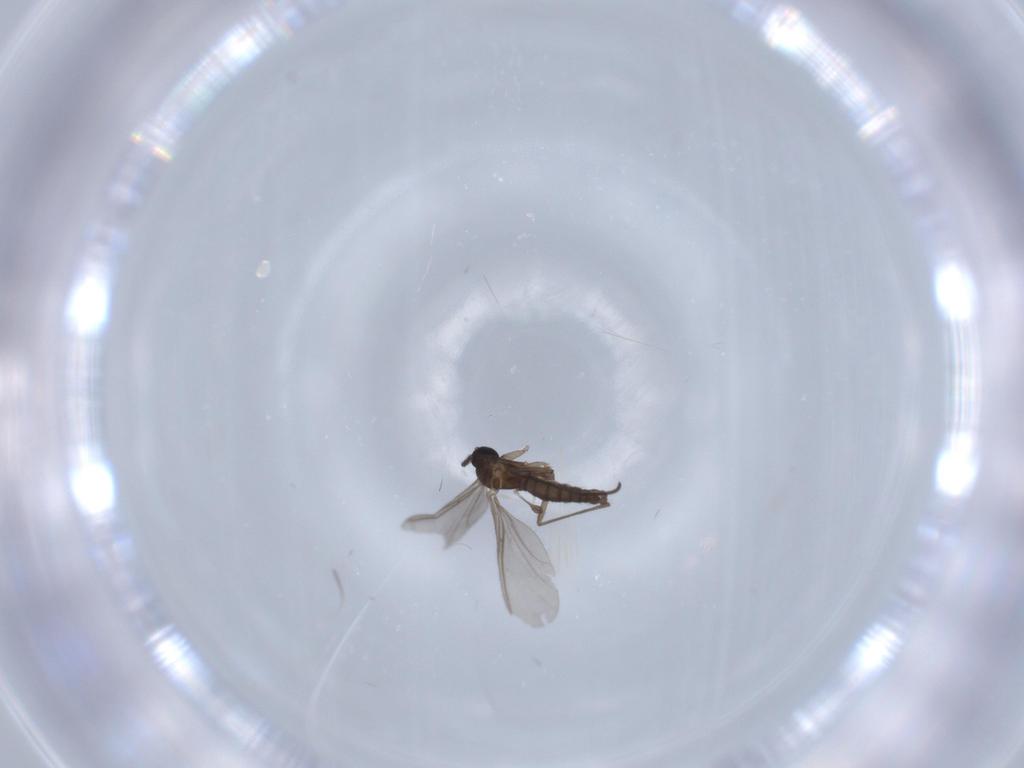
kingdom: Animalia
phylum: Arthropoda
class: Insecta
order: Diptera
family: Sciaridae
